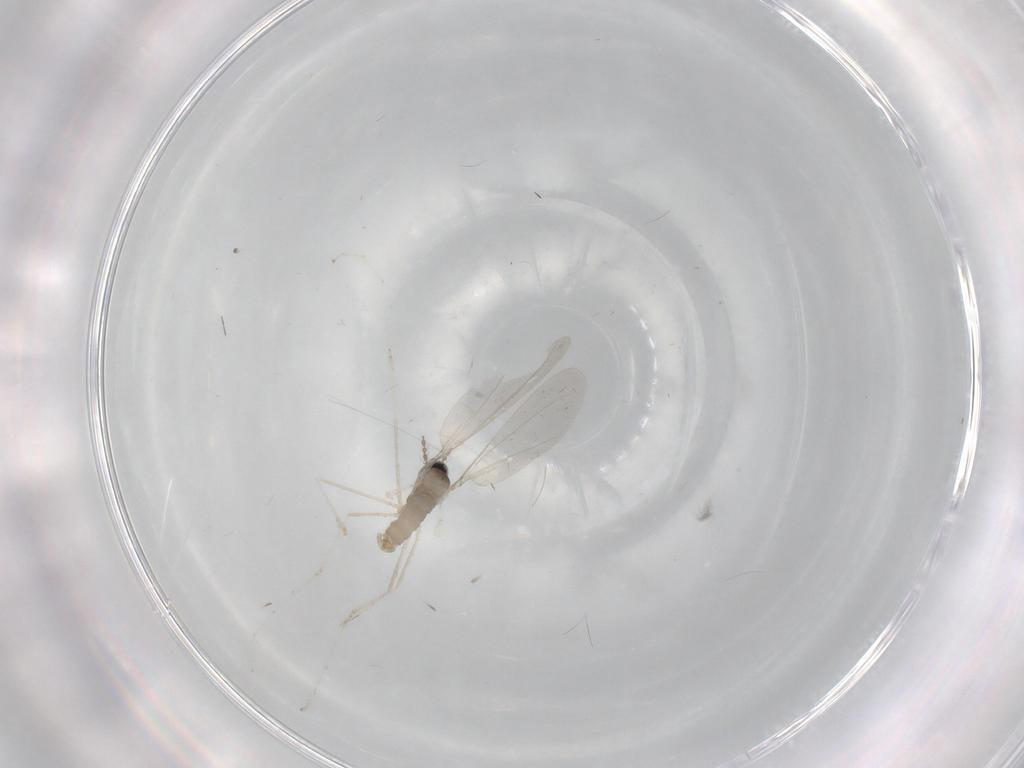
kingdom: Animalia
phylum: Arthropoda
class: Insecta
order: Diptera
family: Cecidomyiidae
